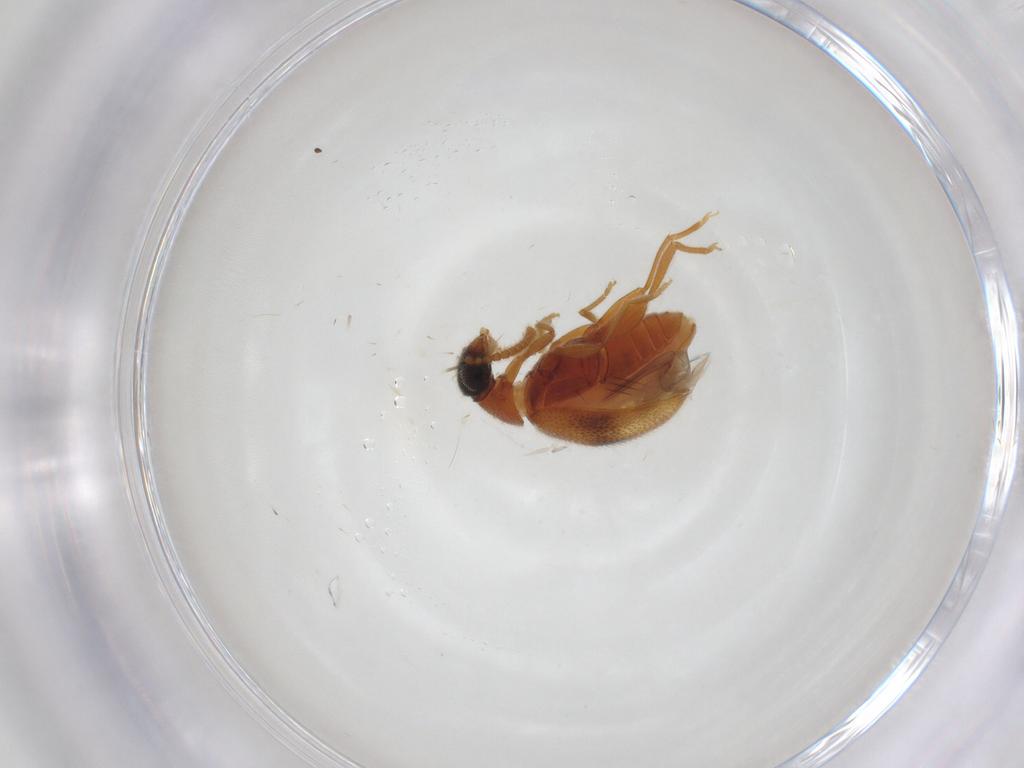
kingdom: Animalia
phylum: Arthropoda
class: Insecta
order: Coleoptera
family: Aderidae
